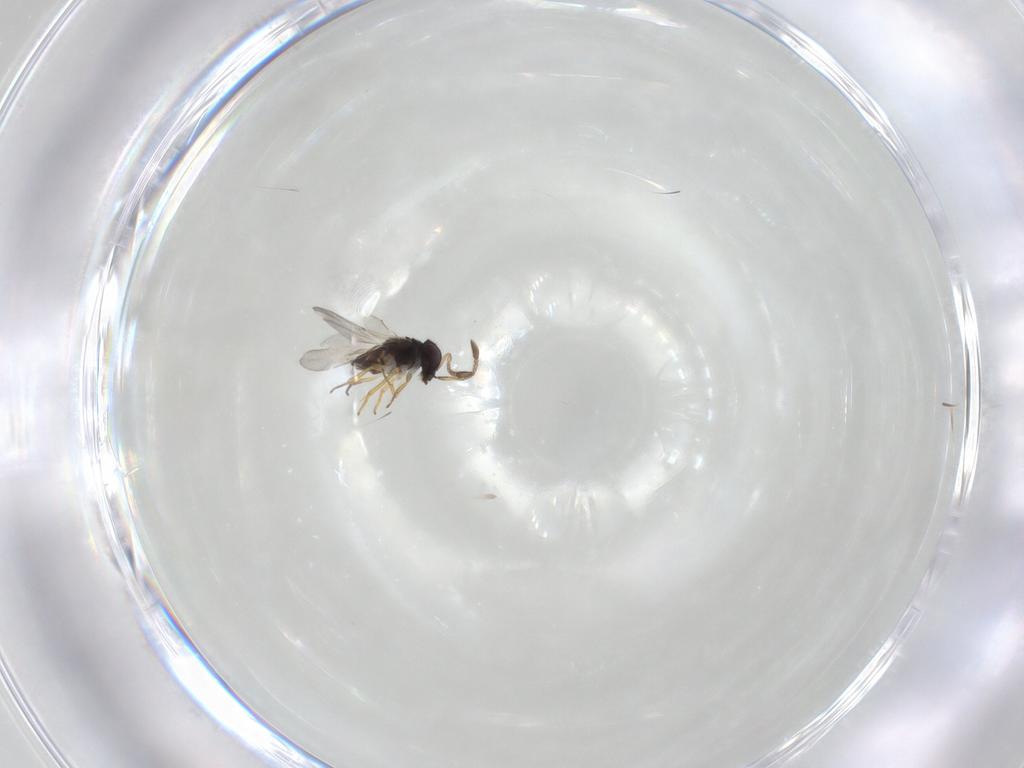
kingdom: Animalia
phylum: Arthropoda
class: Insecta
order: Hymenoptera
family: Encyrtidae
